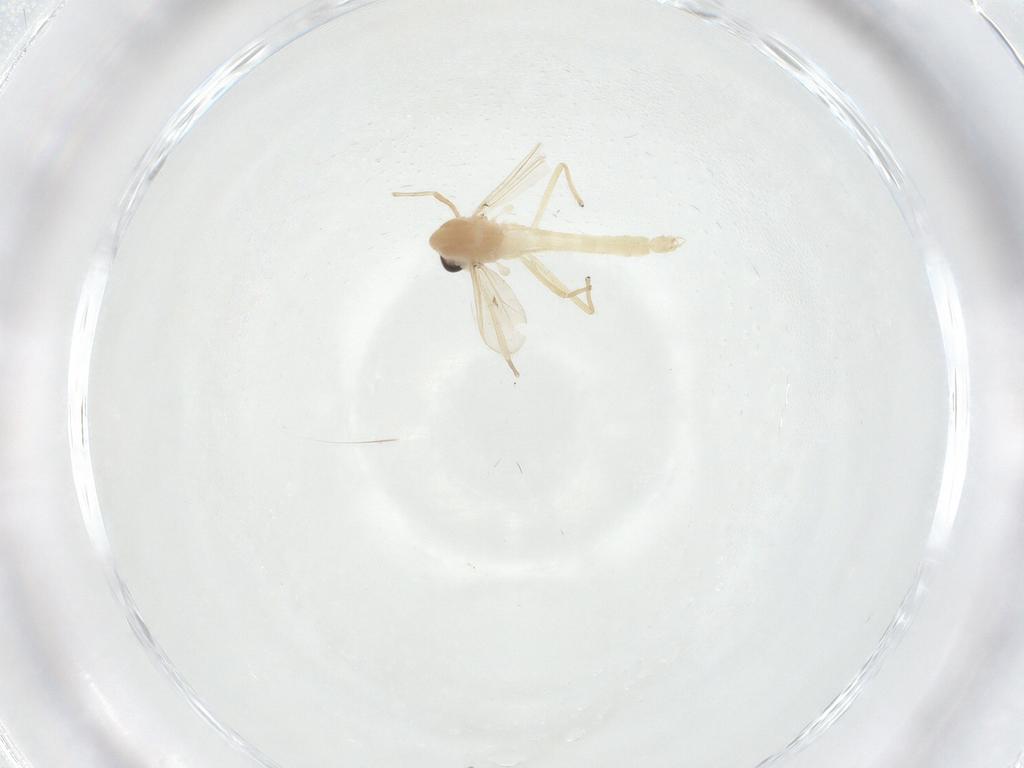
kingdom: Animalia
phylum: Arthropoda
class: Insecta
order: Diptera
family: Chironomidae
